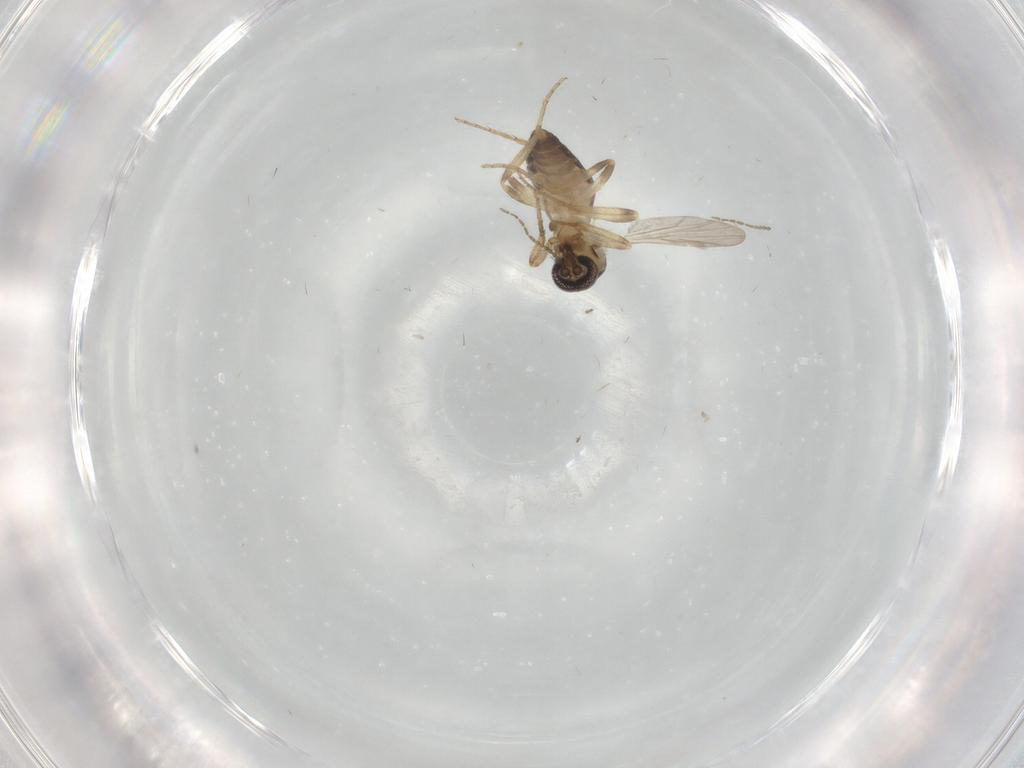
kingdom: Animalia
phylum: Arthropoda
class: Insecta
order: Diptera
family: Ceratopogonidae
